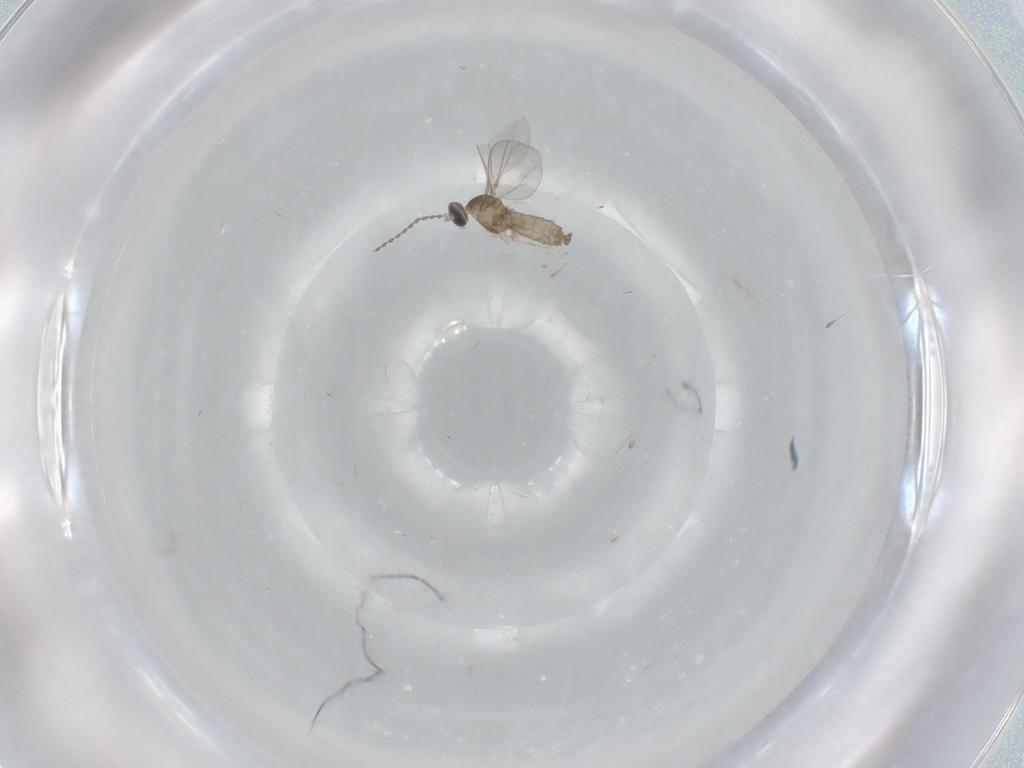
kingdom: Animalia
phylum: Arthropoda
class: Insecta
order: Diptera
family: Cecidomyiidae
